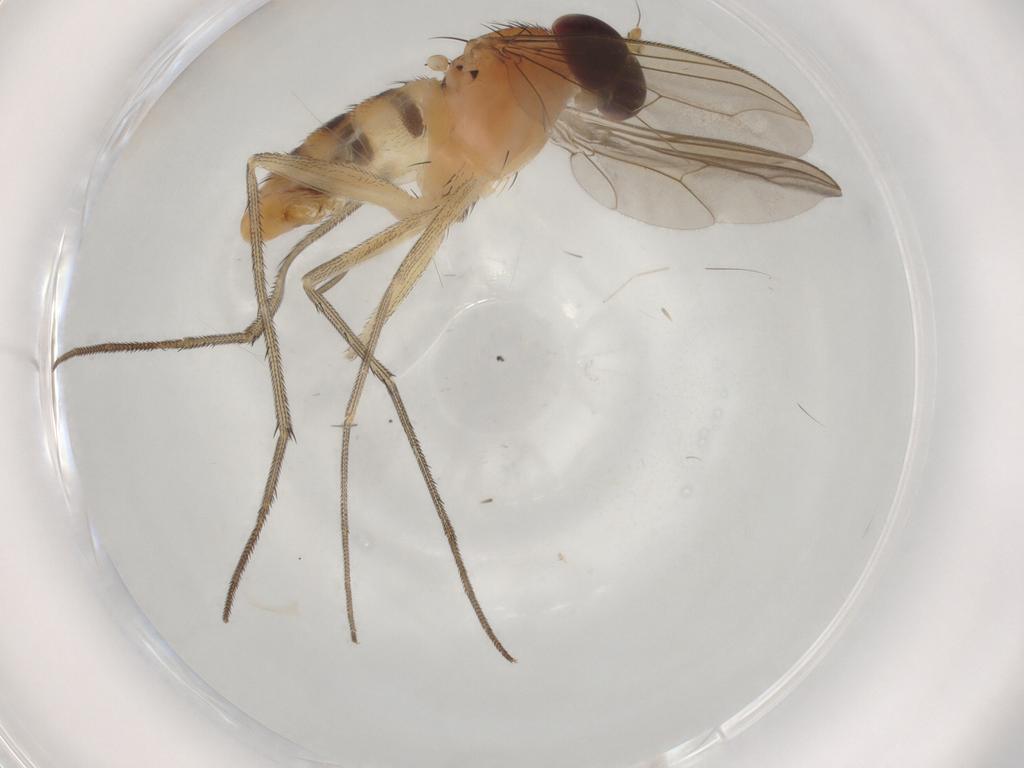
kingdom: Animalia
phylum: Arthropoda
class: Insecta
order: Diptera
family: Dolichopodidae
